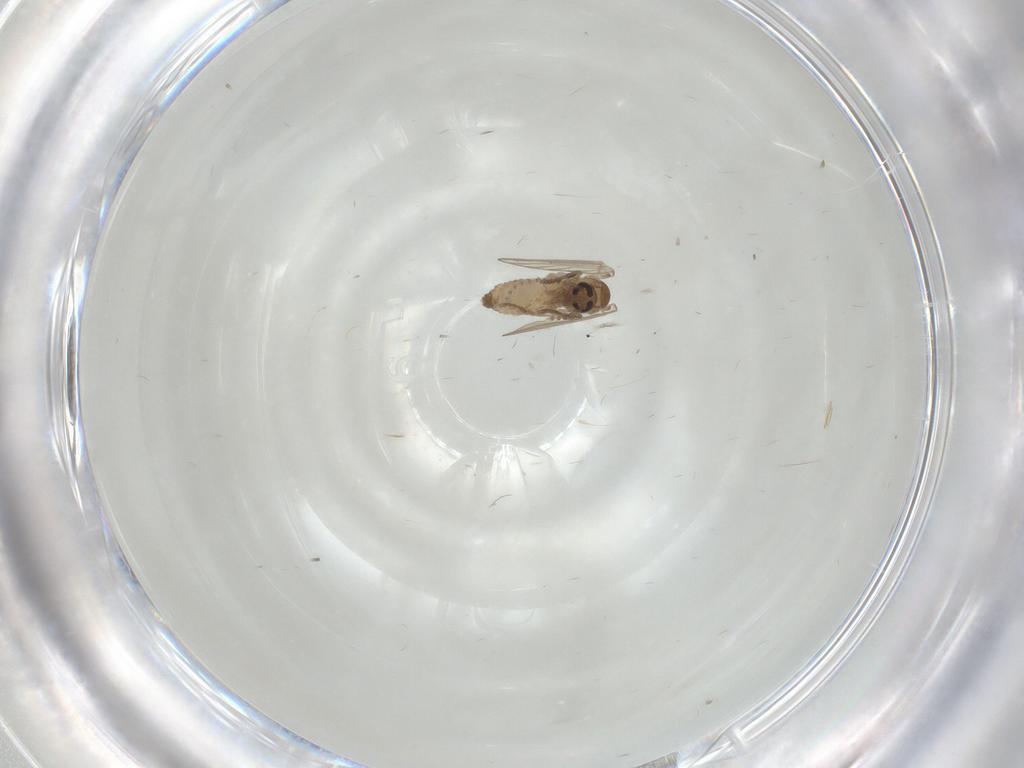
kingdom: Animalia
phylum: Arthropoda
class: Insecta
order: Diptera
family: Psychodidae
